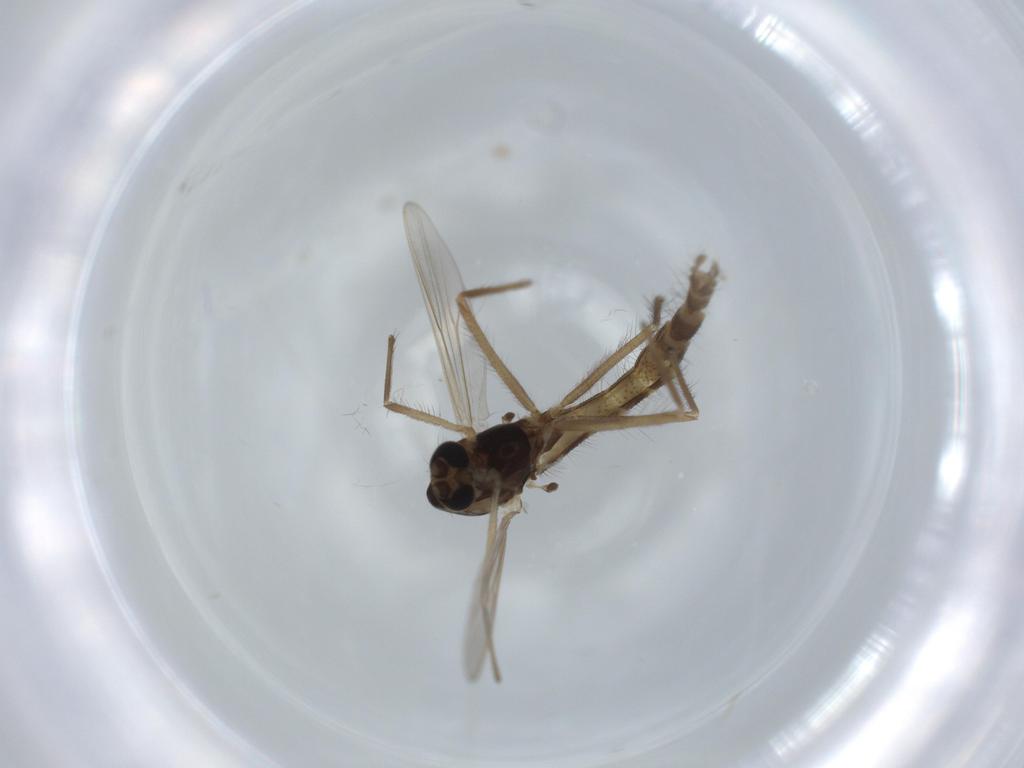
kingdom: Animalia
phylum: Arthropoda
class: Insecta
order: Diptera
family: Chironomidae
